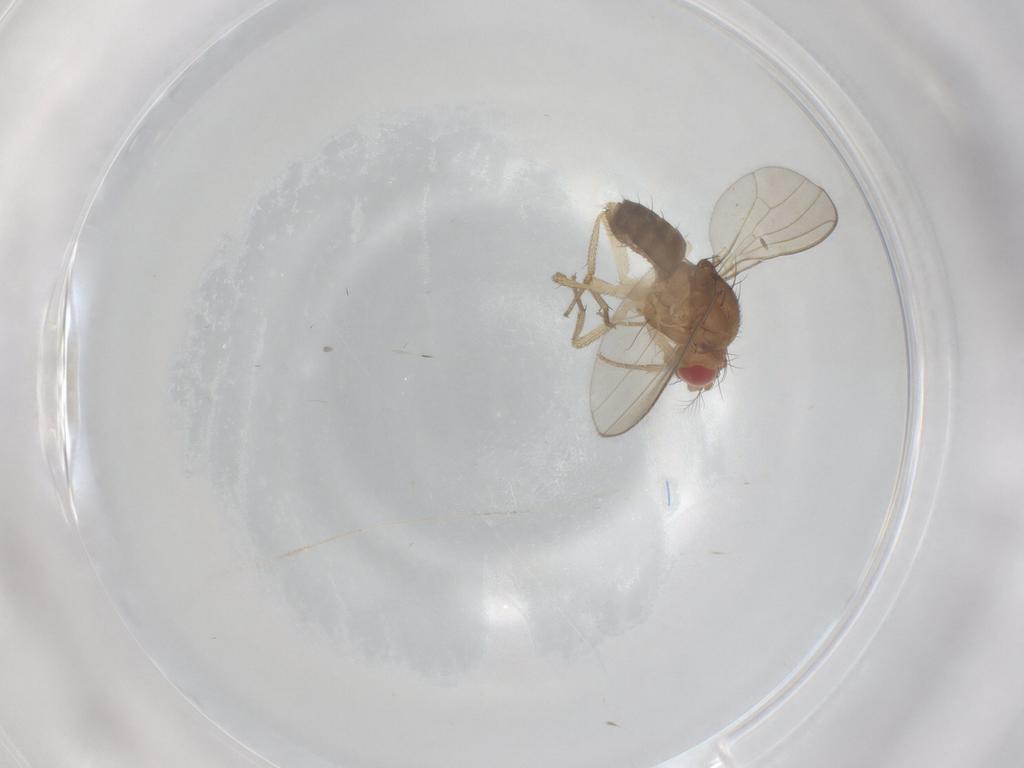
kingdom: Animalia
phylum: Arthropoda
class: Insecta
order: Diptera
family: Drosophilidae
